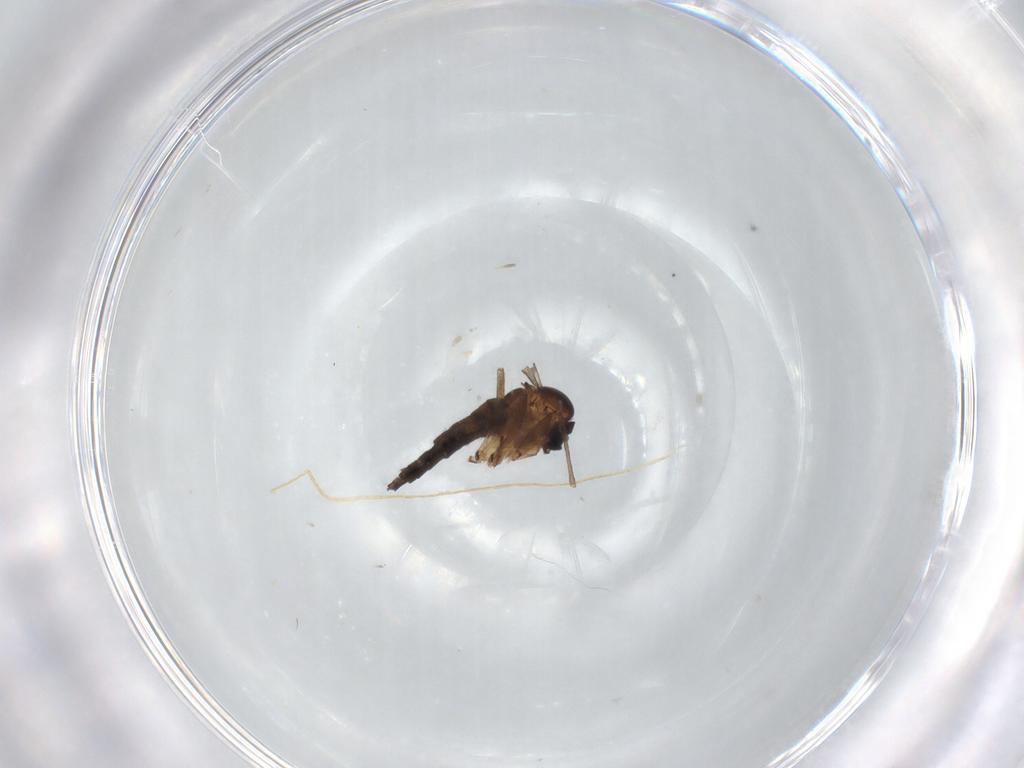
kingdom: Animalia
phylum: Arthropoda
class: Insecta
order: Diptera
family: Sciaridae
